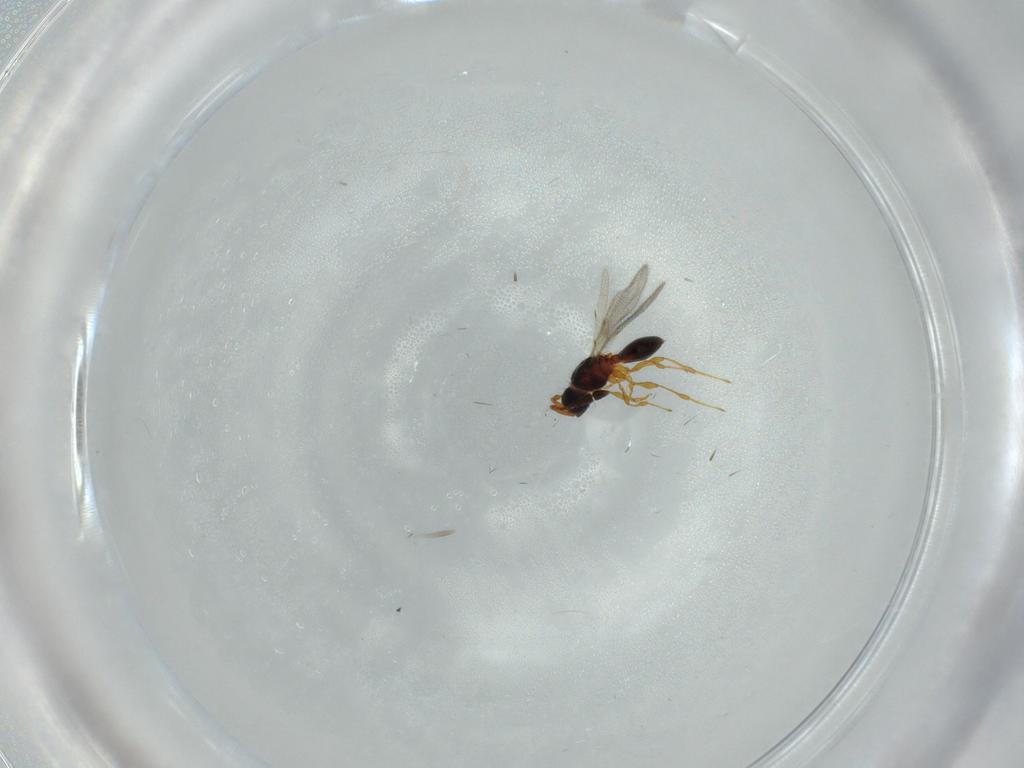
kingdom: Animalia
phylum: Arthropoda
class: Insecta
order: Hymenoptera
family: Diapriidae
